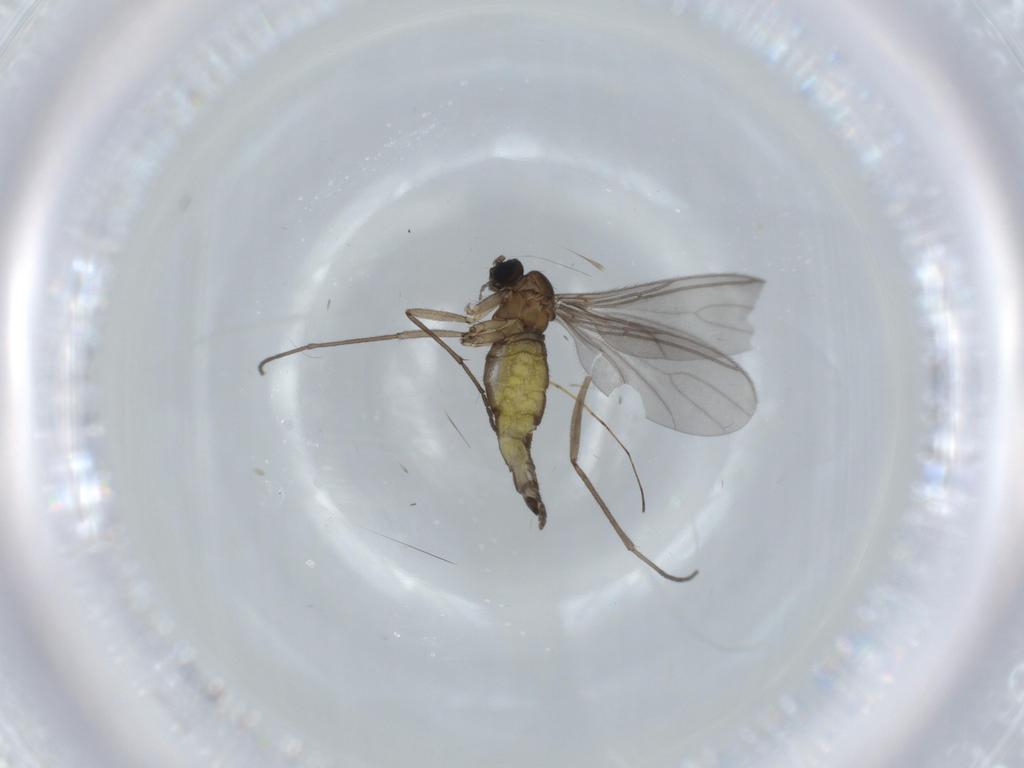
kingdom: Animalia
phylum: Arthropoda
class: Insecta
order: Diptera
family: Sciaridae
